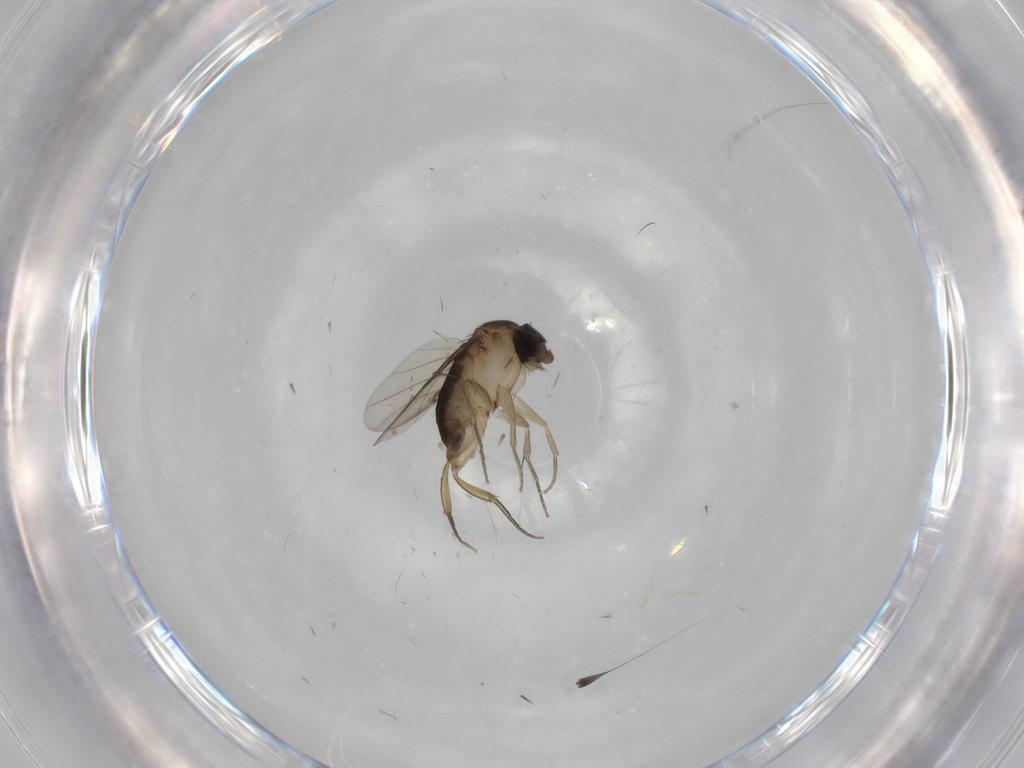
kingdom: Animalia
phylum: Arthropoda
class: Insecta
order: Diptera
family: Phoridae
